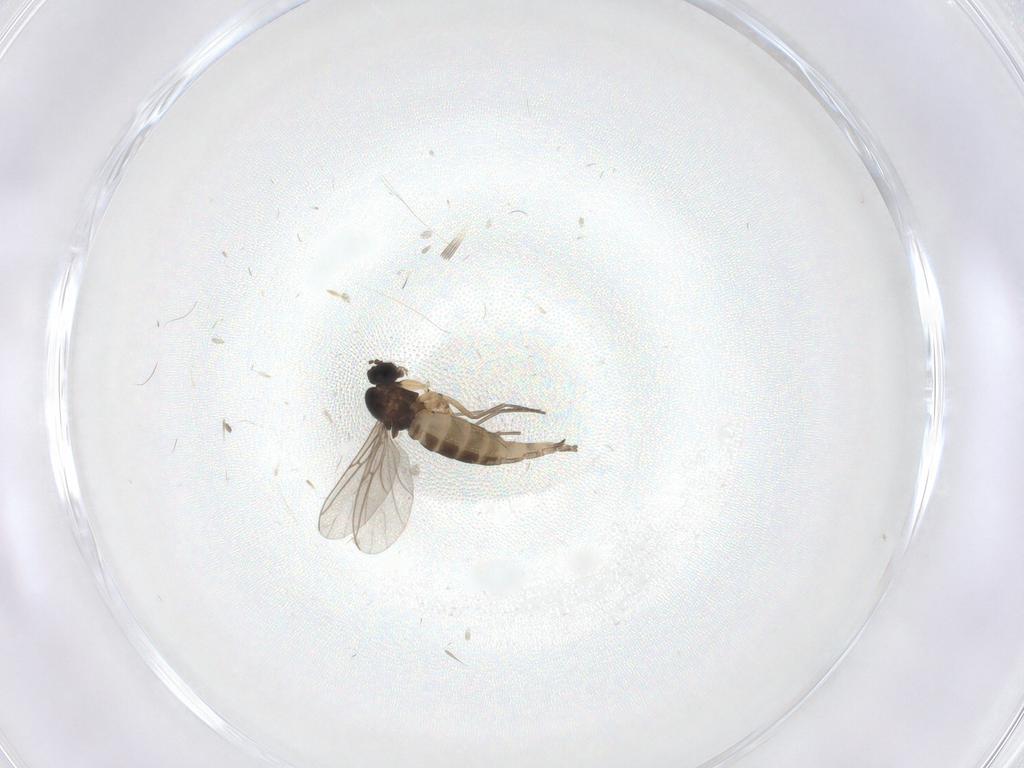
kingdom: Animalia
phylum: Arthropoda
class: Insecta
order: Diptera
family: Sciaridae
